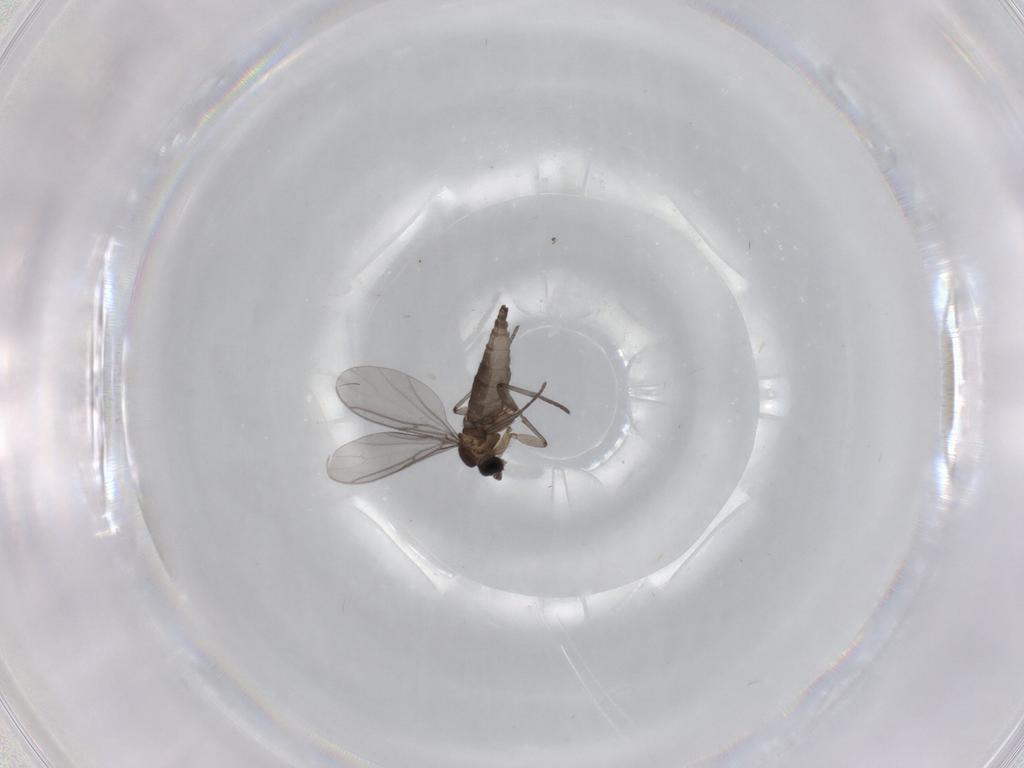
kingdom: Animalia
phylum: Arthropoda
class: Insecta
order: Diptera
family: Sciaridae
